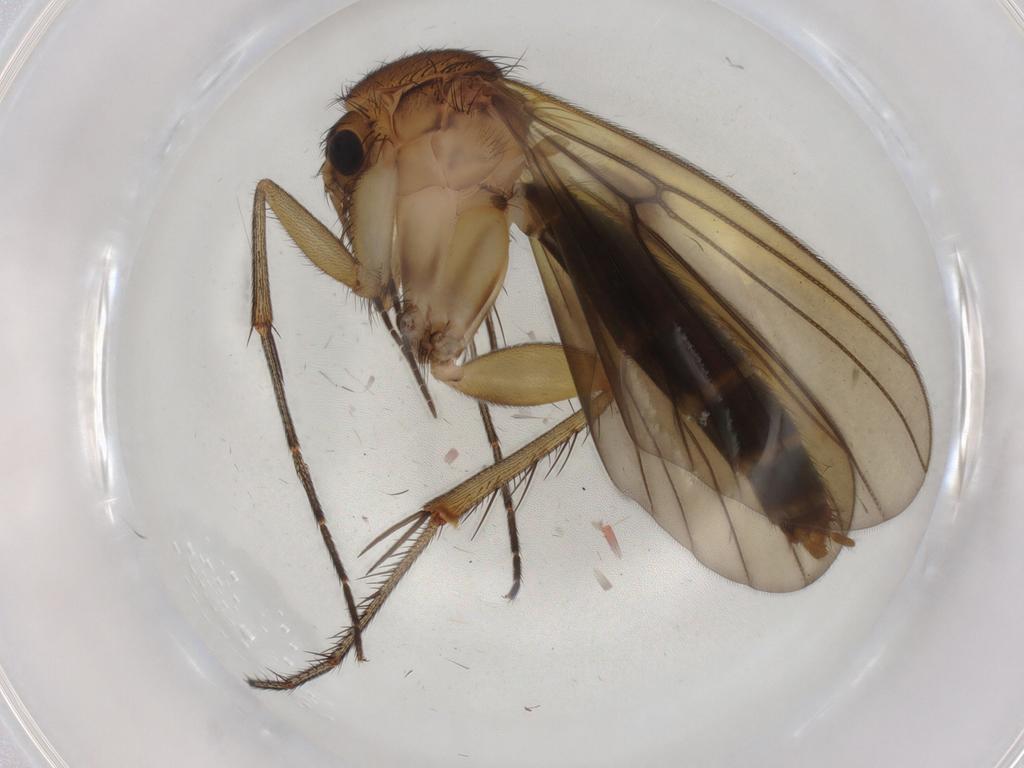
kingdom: Animalia
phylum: Arthropoda
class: Insecta
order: Diptera
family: Mycetophilidae
